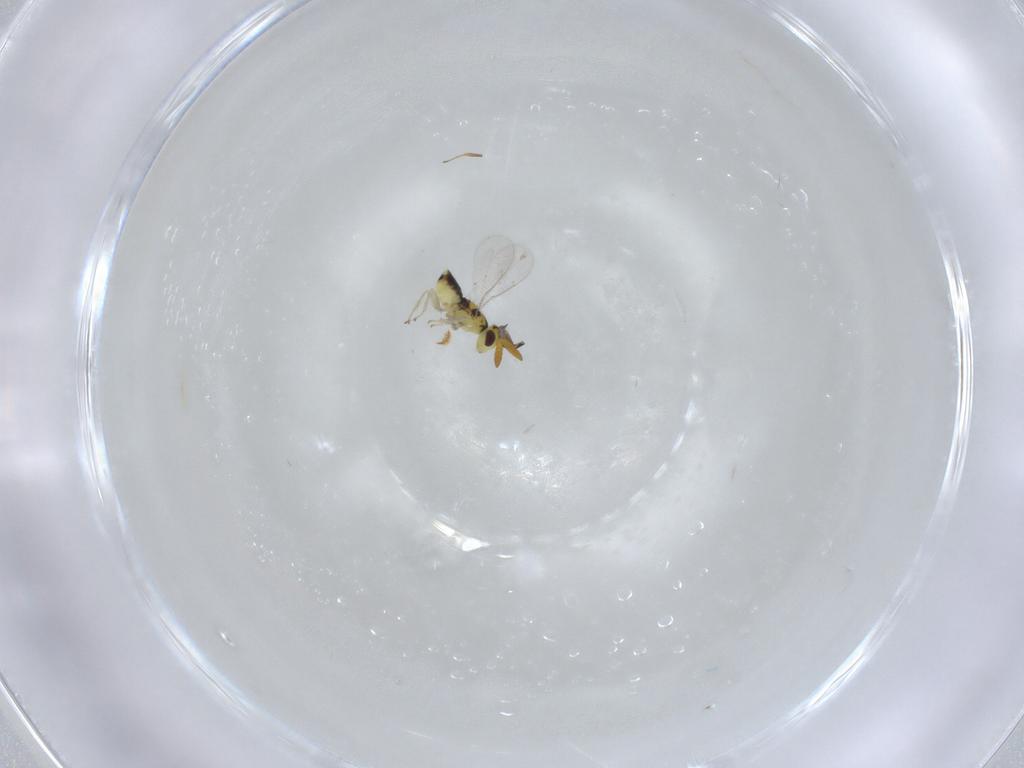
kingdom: Animalia
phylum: Arthropoda
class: Insecta
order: Hymenoptera
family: Scelionidae
